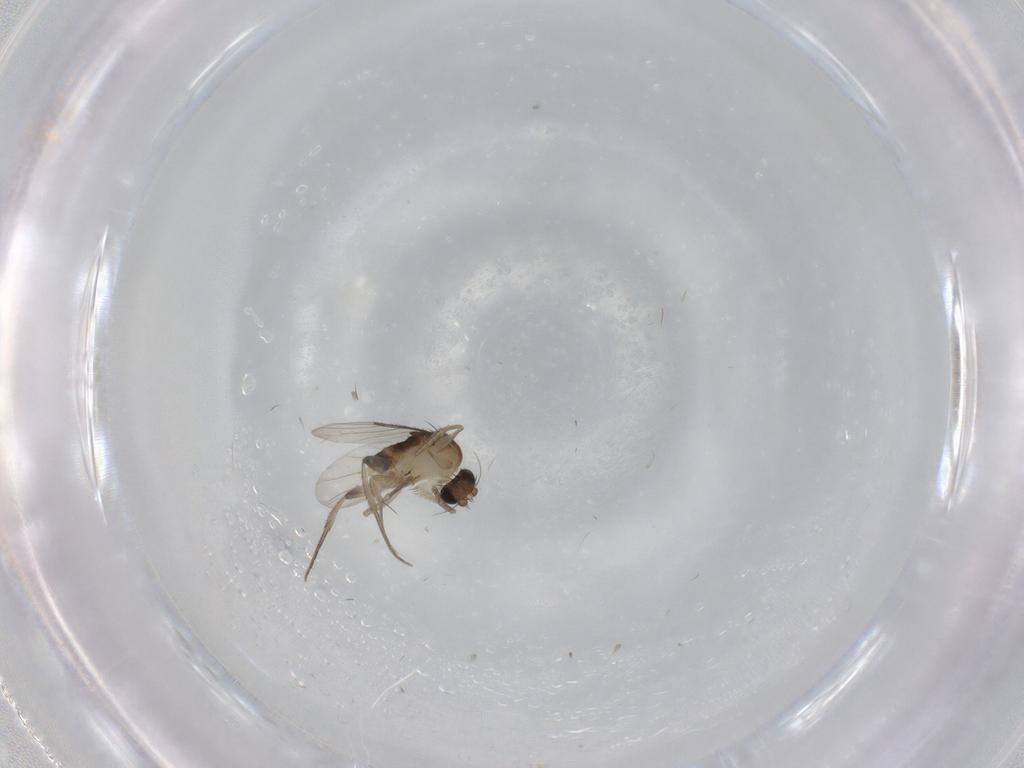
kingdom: Animalia
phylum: Arthropoda
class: Insecta
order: Diptera
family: Phoridae
